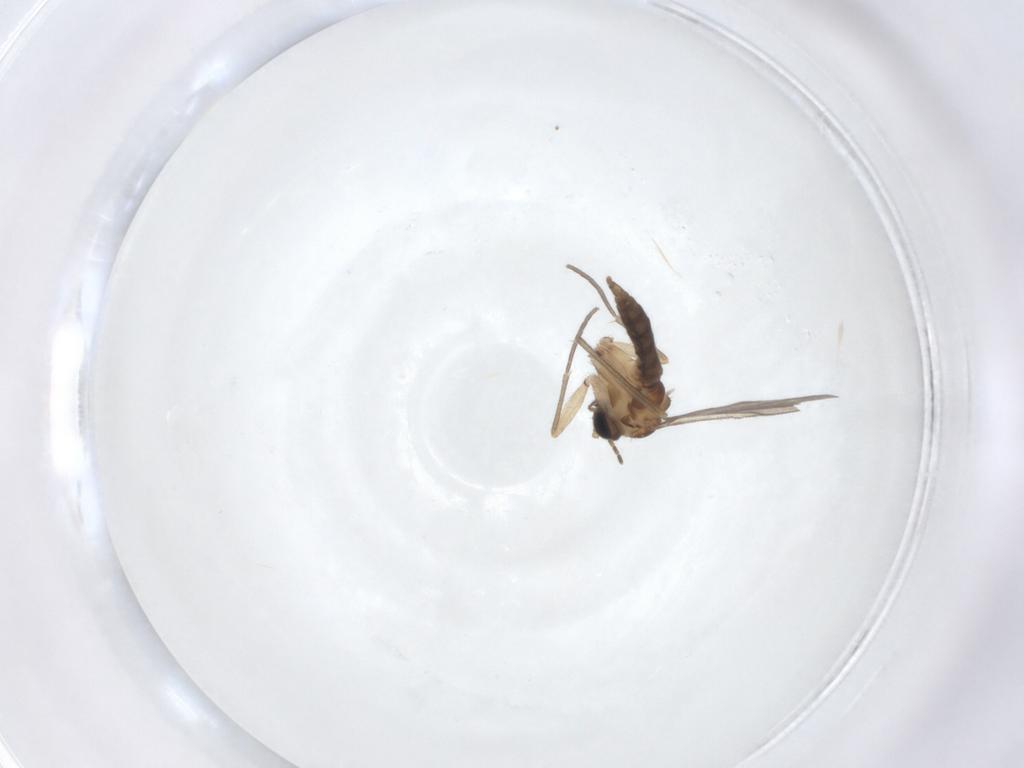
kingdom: Animalia
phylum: Arthropoda
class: Insecta
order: Diptera
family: Sciaridae
